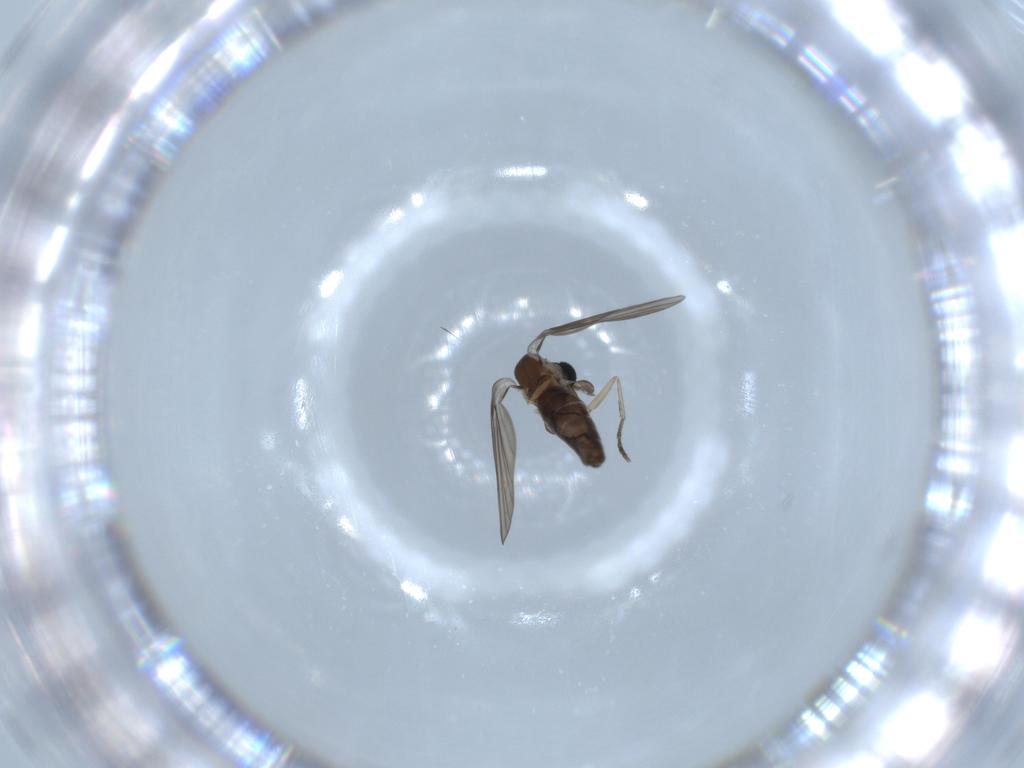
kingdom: Animalia
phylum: Arthropoda
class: Insecta
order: Diptera
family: Psychodidae
